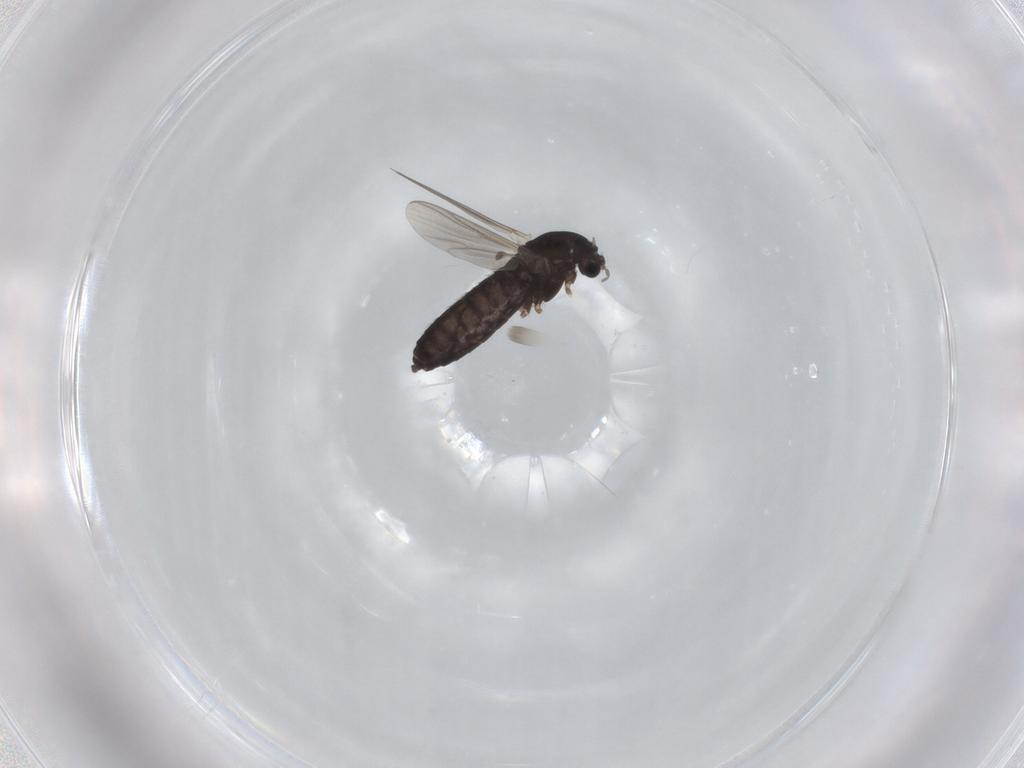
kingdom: Animalia
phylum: Arthropoda
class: Insecta
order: Diptera
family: Chironomidae
